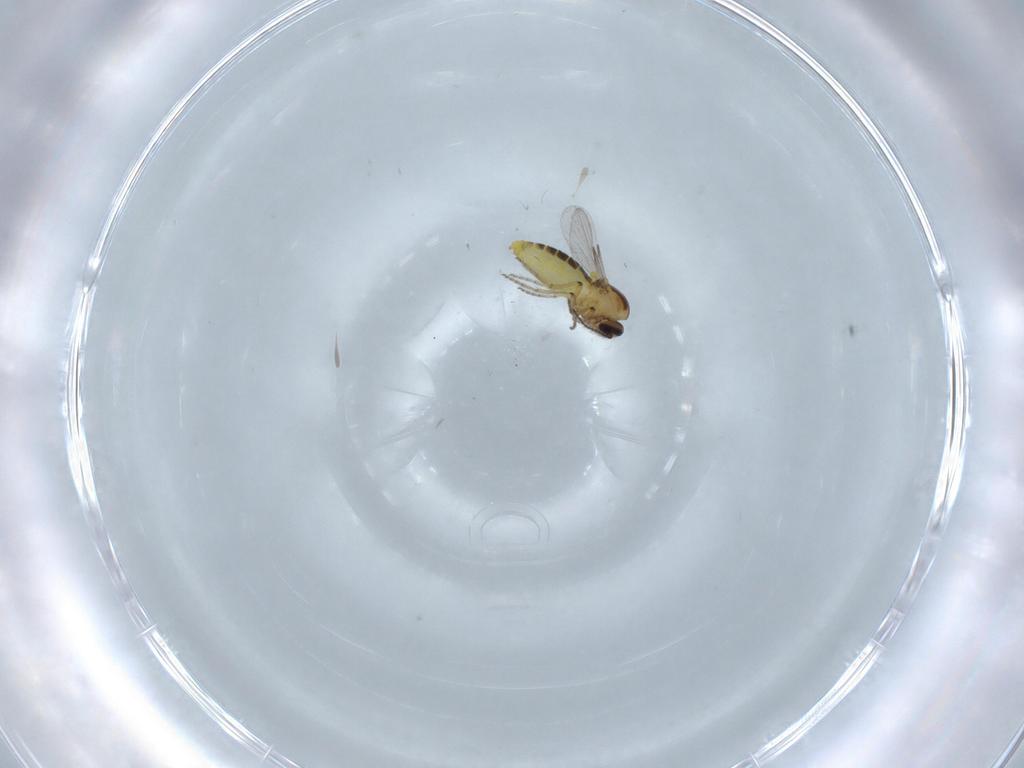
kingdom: Animalia
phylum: Arthropoda
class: Insecta
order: Diptera
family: Ceratopogonidae
